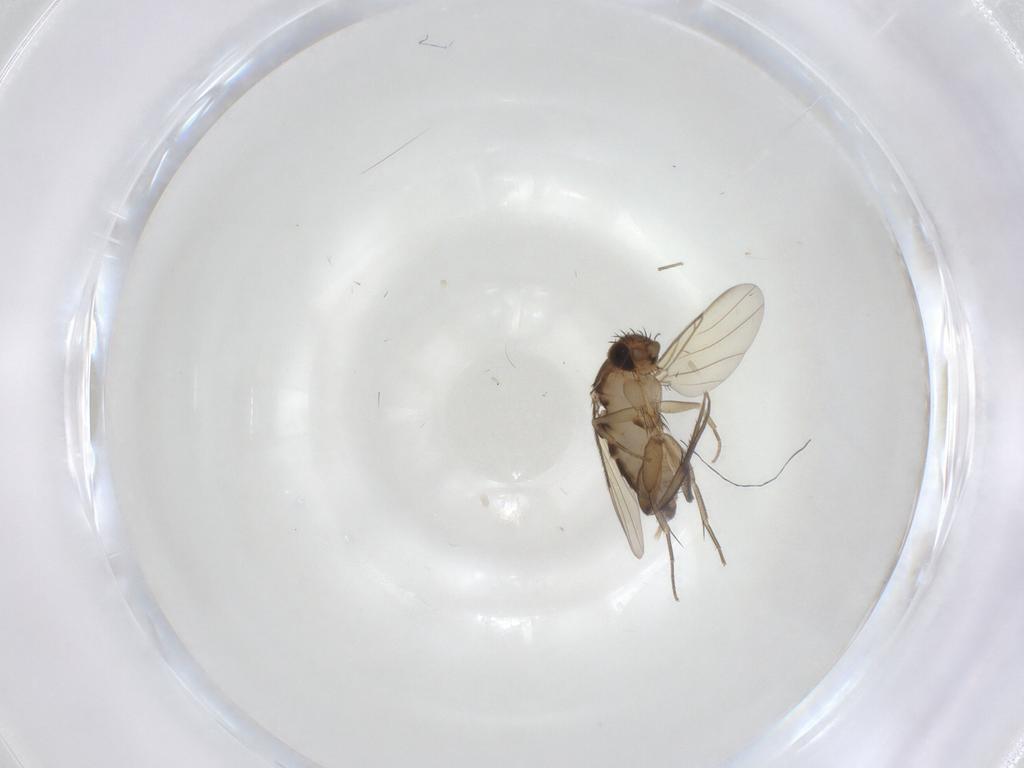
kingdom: Animalia
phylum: Arthropoda
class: Insecta
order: Diptera
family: Phoridae
